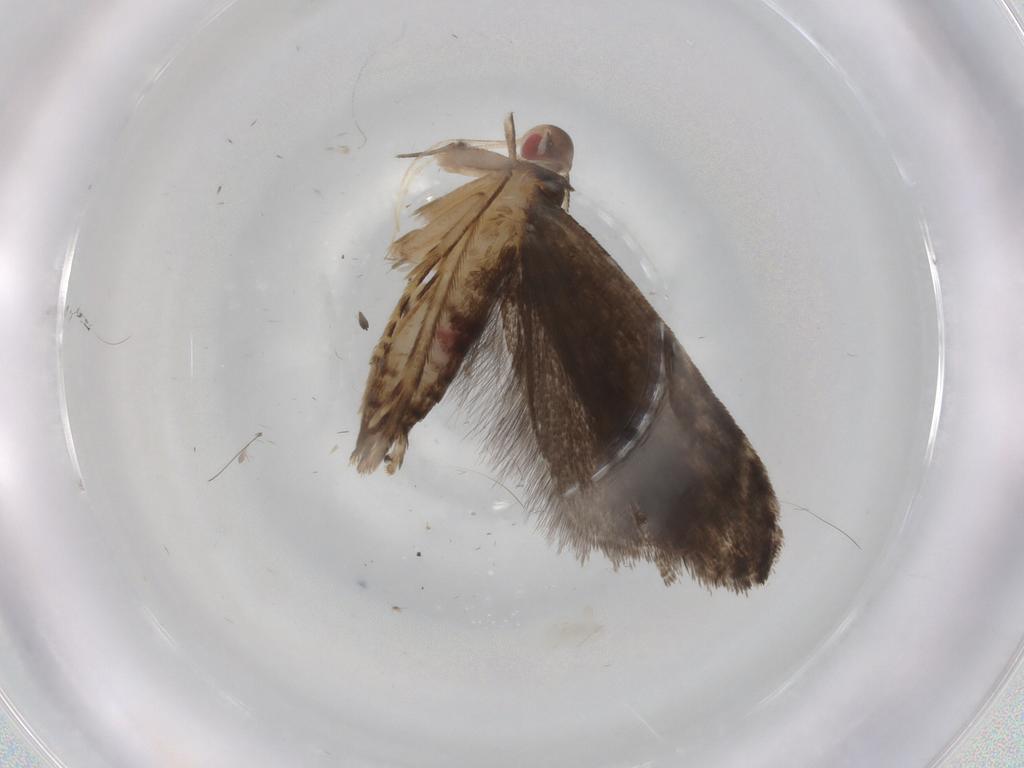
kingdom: Animalia
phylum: Arthropoda
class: Insecta
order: Lepidoptera
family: Gelechiidae
